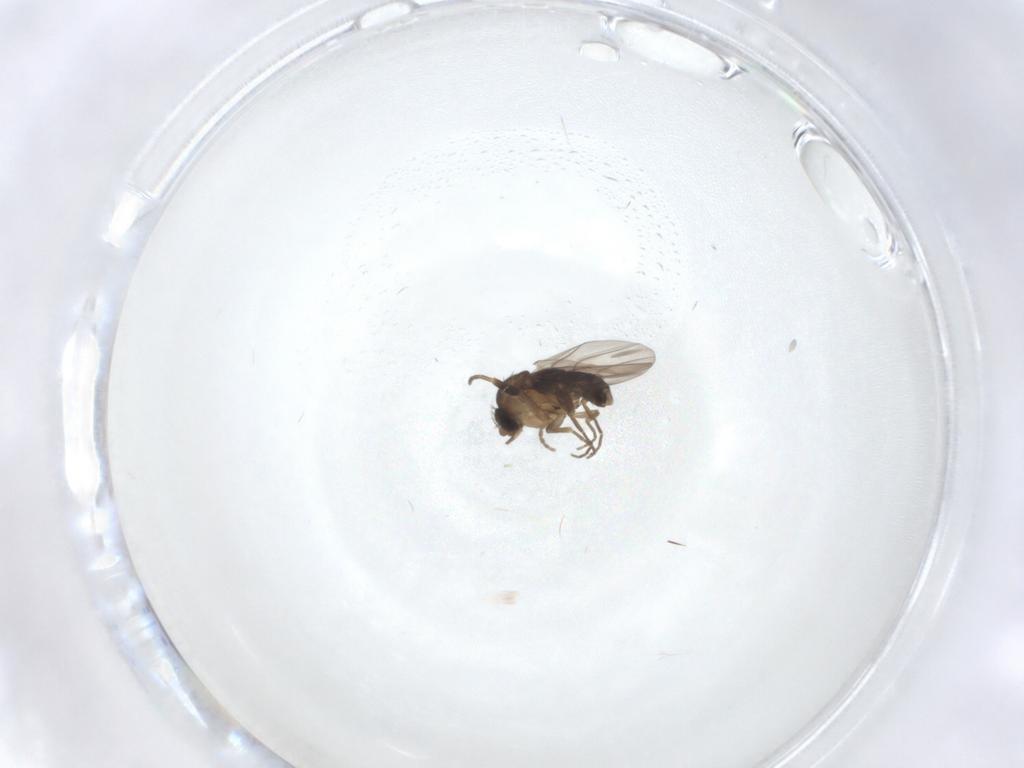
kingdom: Animalia
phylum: Arthropoda
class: Insecta
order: Diptera
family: Phoridae
